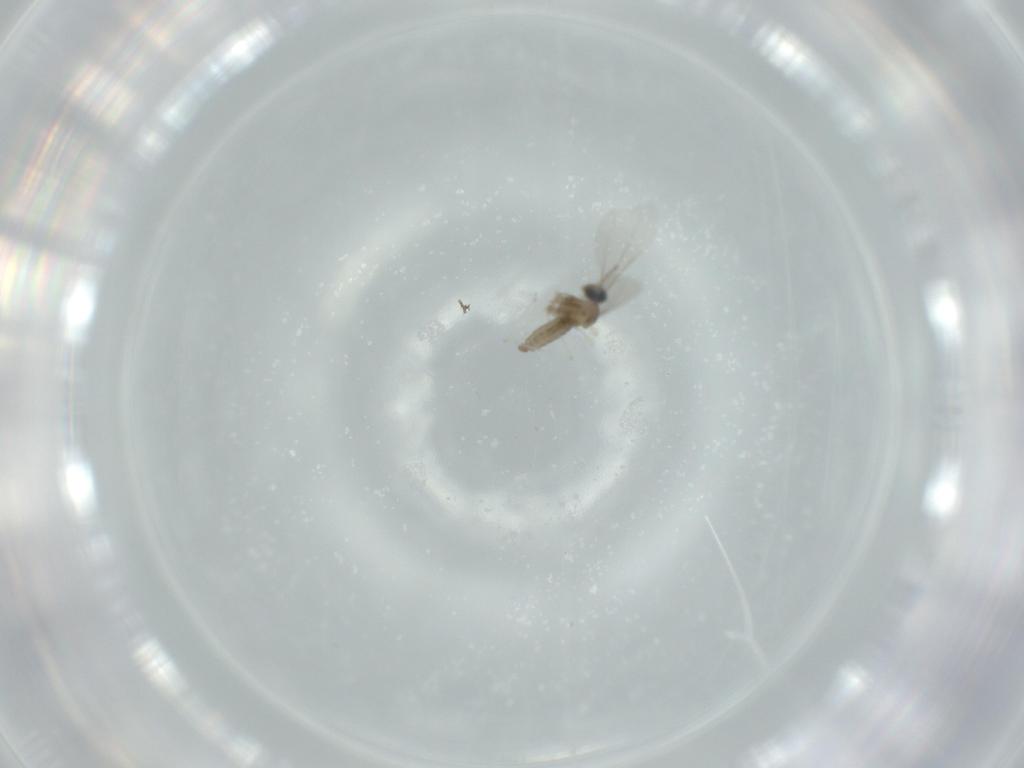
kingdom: Animalia
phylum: Arthropoda
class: Insecta
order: Diptera
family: Cecidomyiidae
